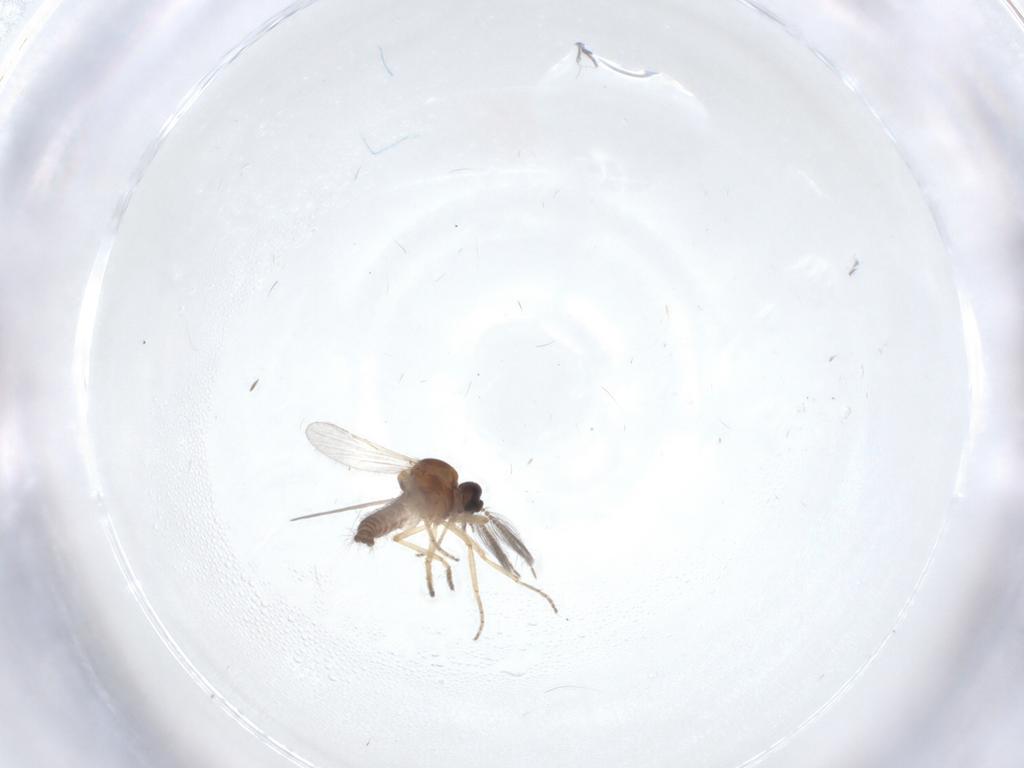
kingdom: Animalia
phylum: Arthropoda
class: Insecta
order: Diptera
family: Ceratopogonidae
